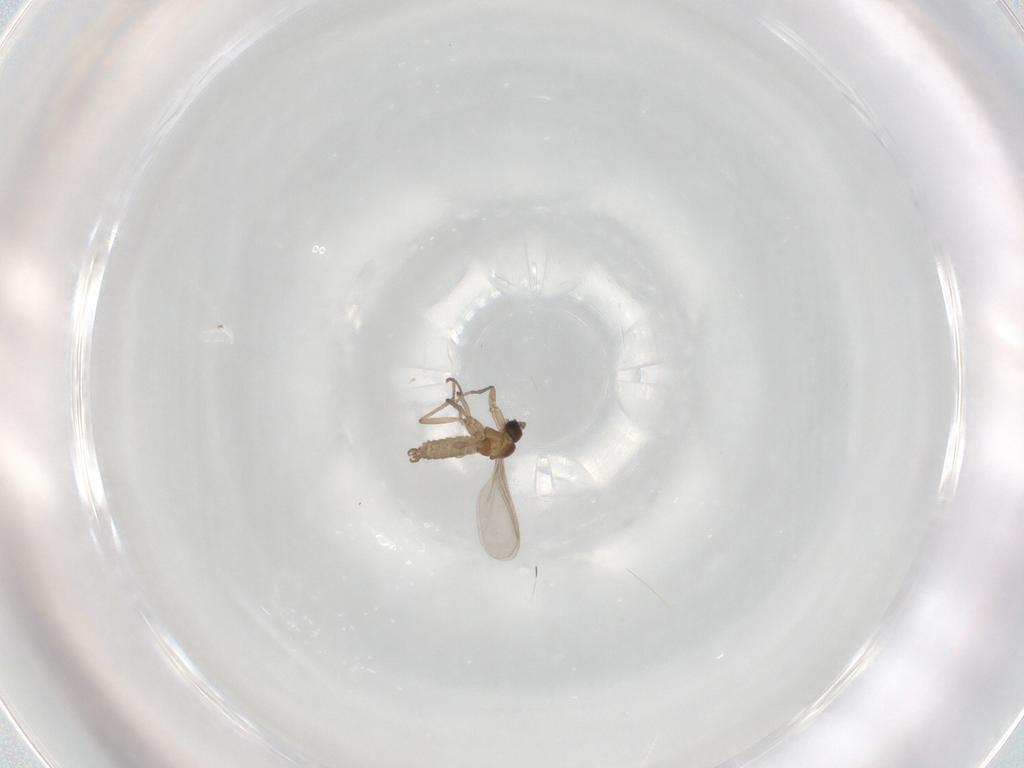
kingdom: Animalia
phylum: Arthropoda
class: Insecta
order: Diptera
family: Sciaridae
